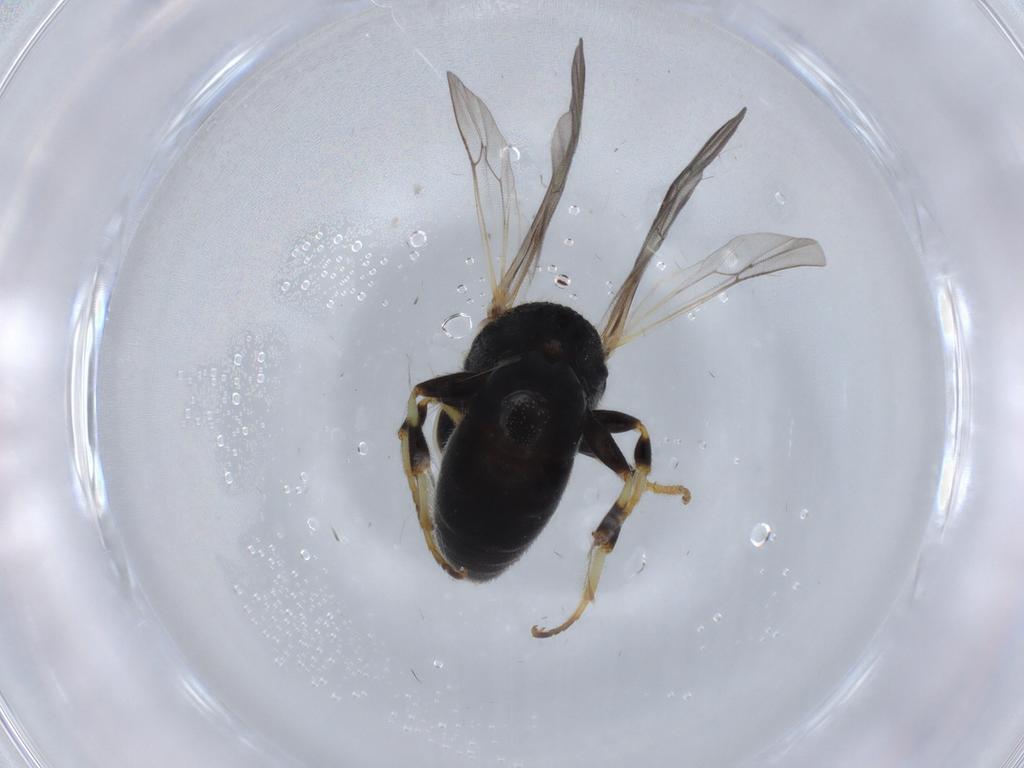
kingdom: Animalia
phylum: Arthropoda
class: Insecta
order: Hymenoptera
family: Colletidae
